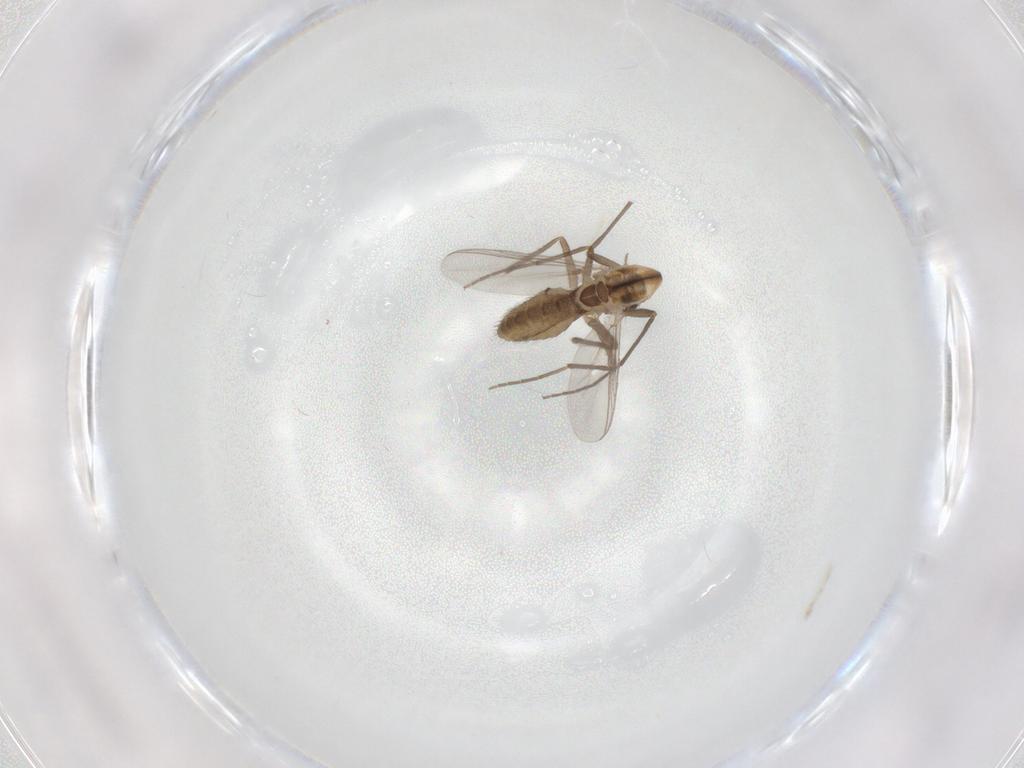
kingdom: Animalia
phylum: Arthropoda
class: Insecta
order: Diptera
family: Chironomidae
